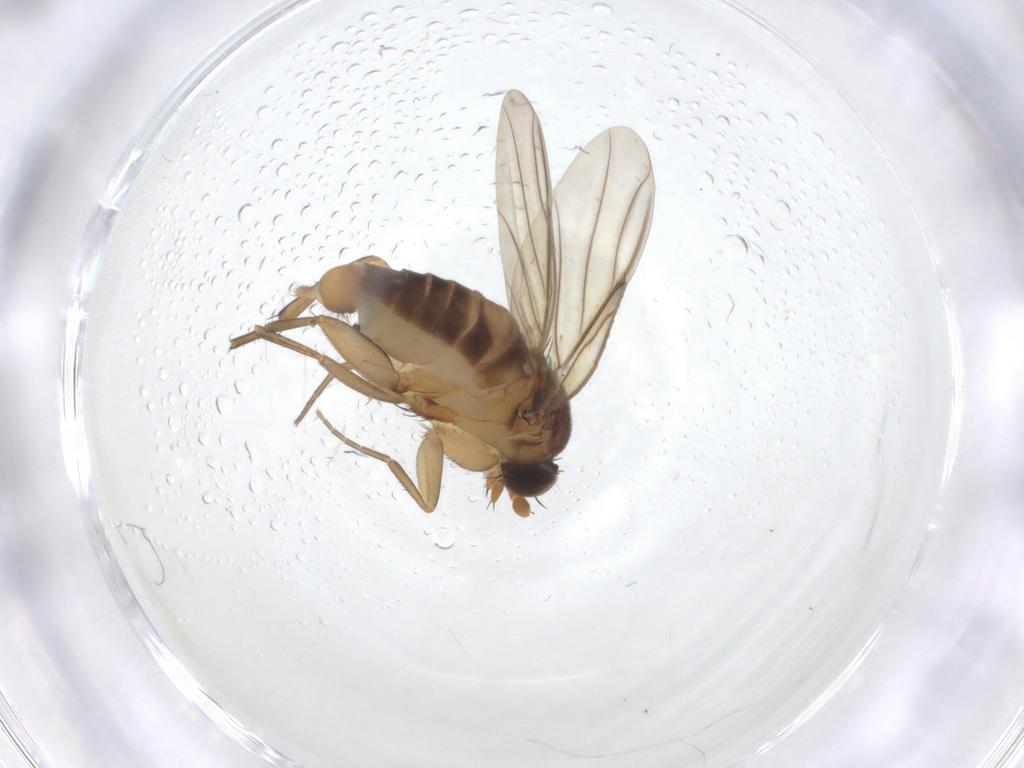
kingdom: Animalia
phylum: Arthropoda
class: Insecta
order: Diptera
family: Phoridae
